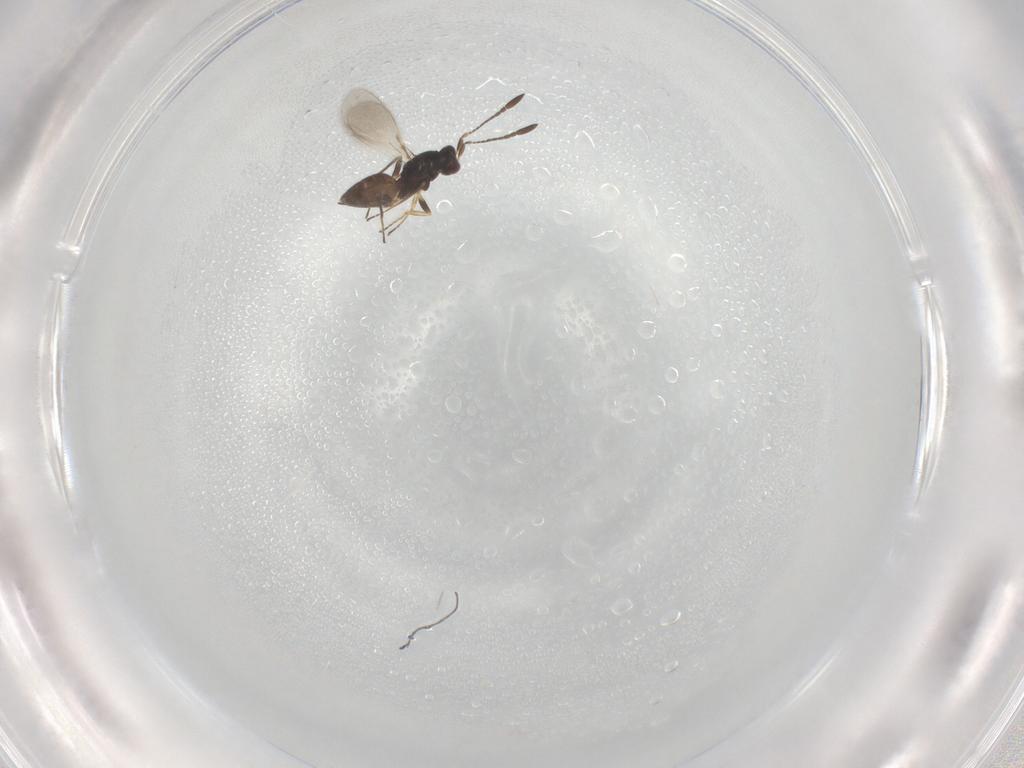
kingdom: Animalia
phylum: Arthropoda
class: Insecta
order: Hymenoptera
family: Mymaridae
